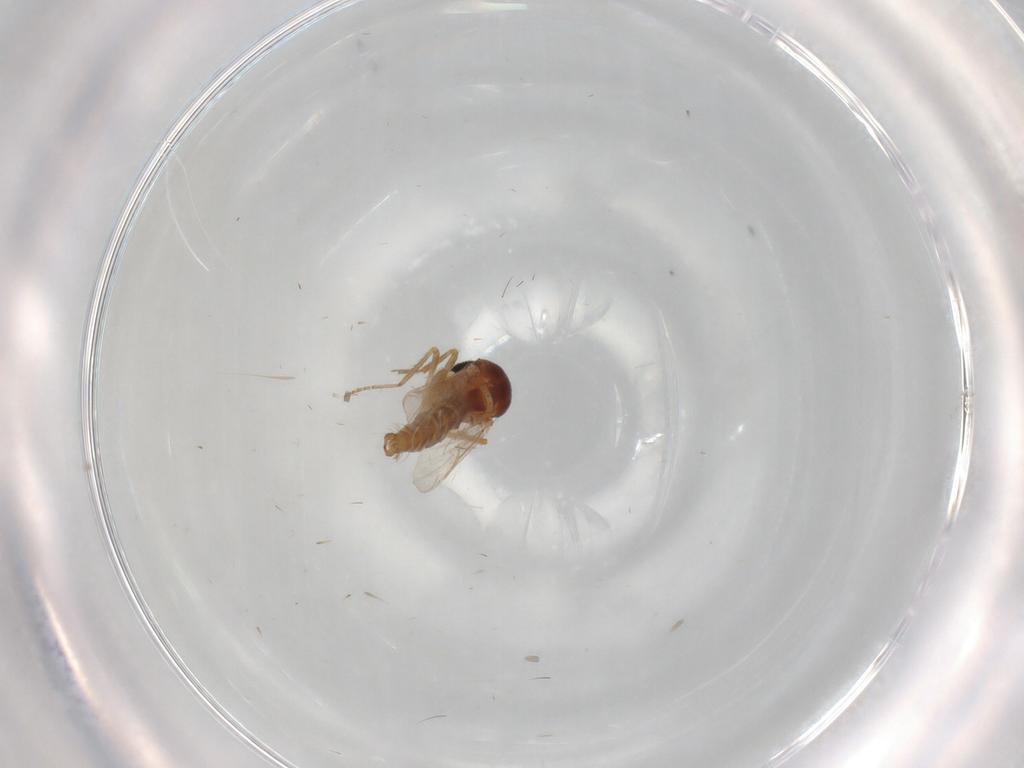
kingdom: Animalia
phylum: Arthropoda
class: Insecta
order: Diptera
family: Ceratopogonidae
